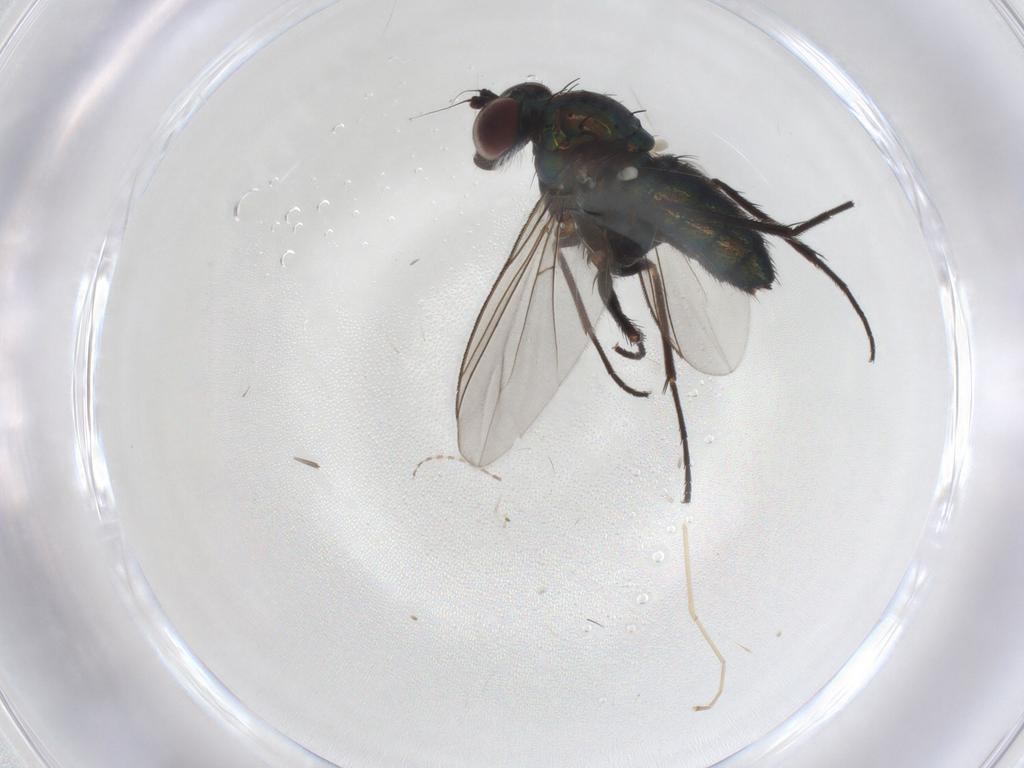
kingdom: Animalia
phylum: Arthropoda
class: Insecta
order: Diptera
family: Dolichopodidae
